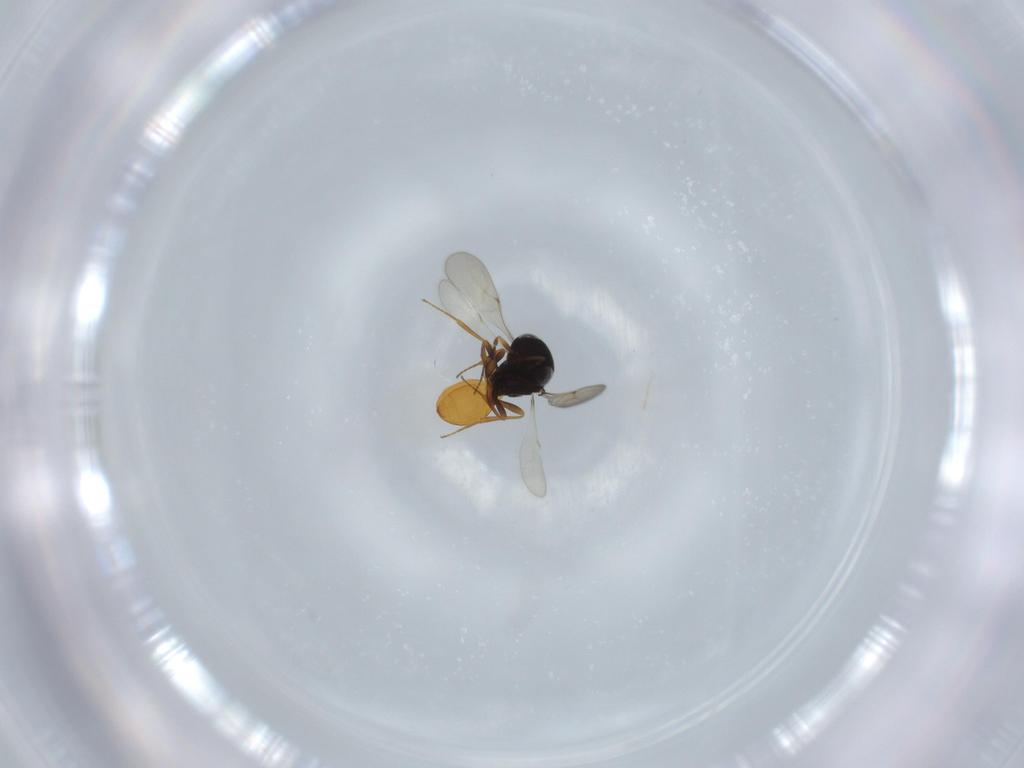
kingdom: Animalia
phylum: Arthropoda
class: Insecta
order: Hymenoptera
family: Scelionidae
